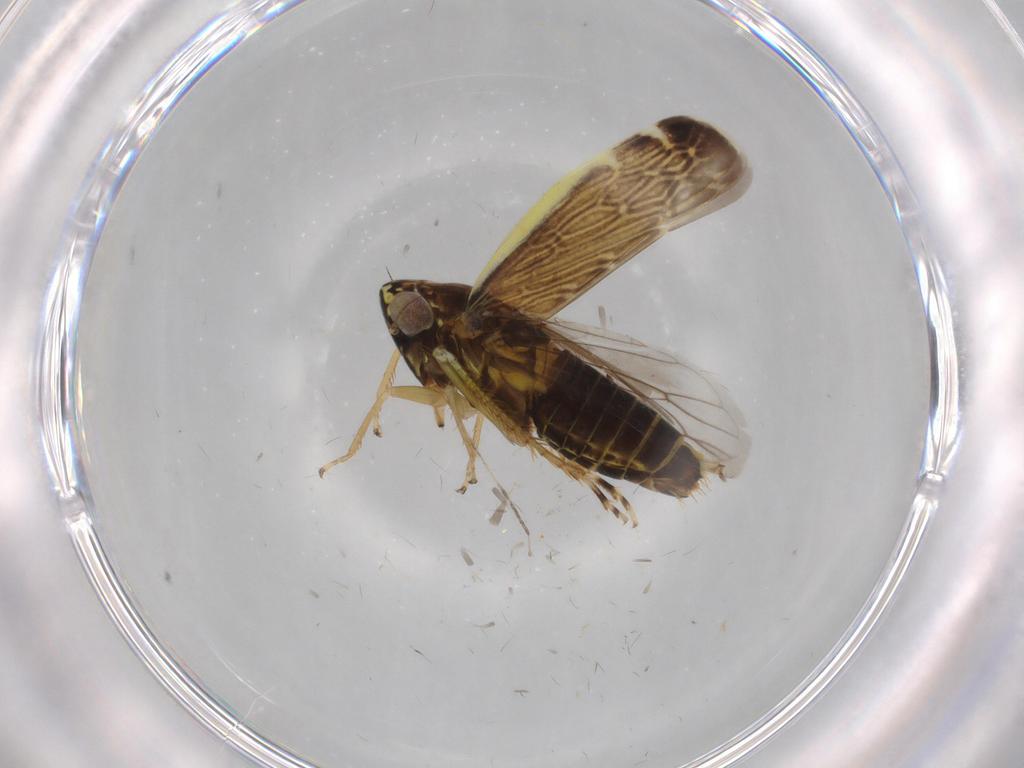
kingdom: Animalia
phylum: Arthropoda
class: Insecta
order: Hemiptera
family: Cicadellidae
